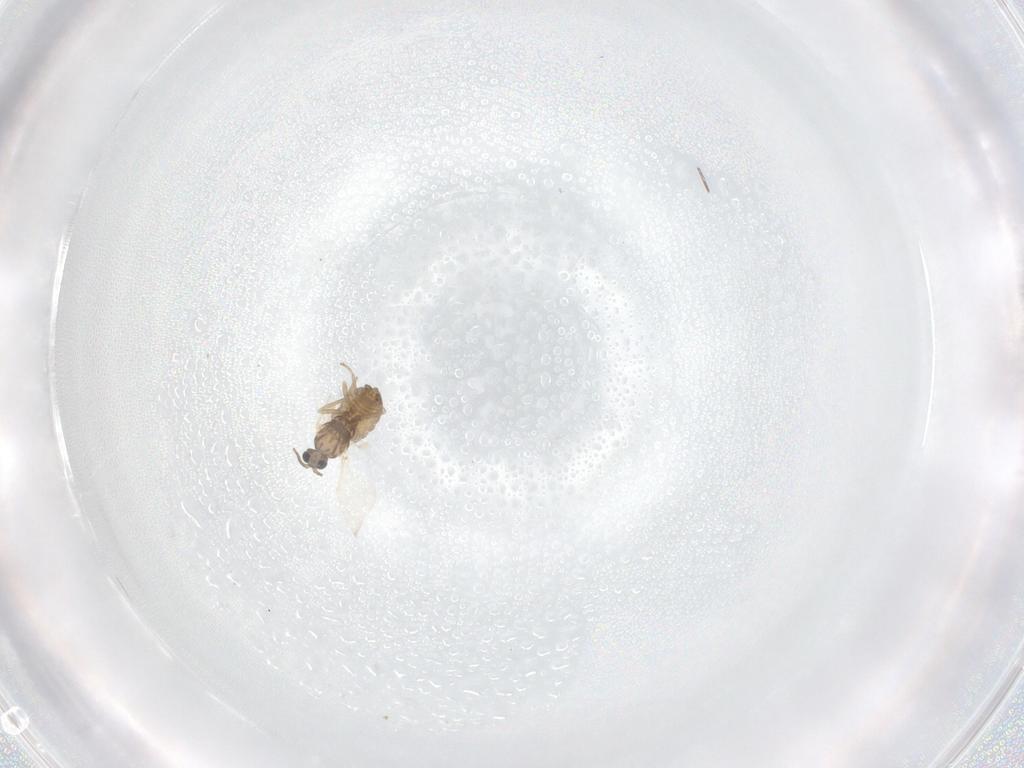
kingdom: Animalia
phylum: Arthropoda
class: Insecta
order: Diptera
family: Cecidomyiidae
